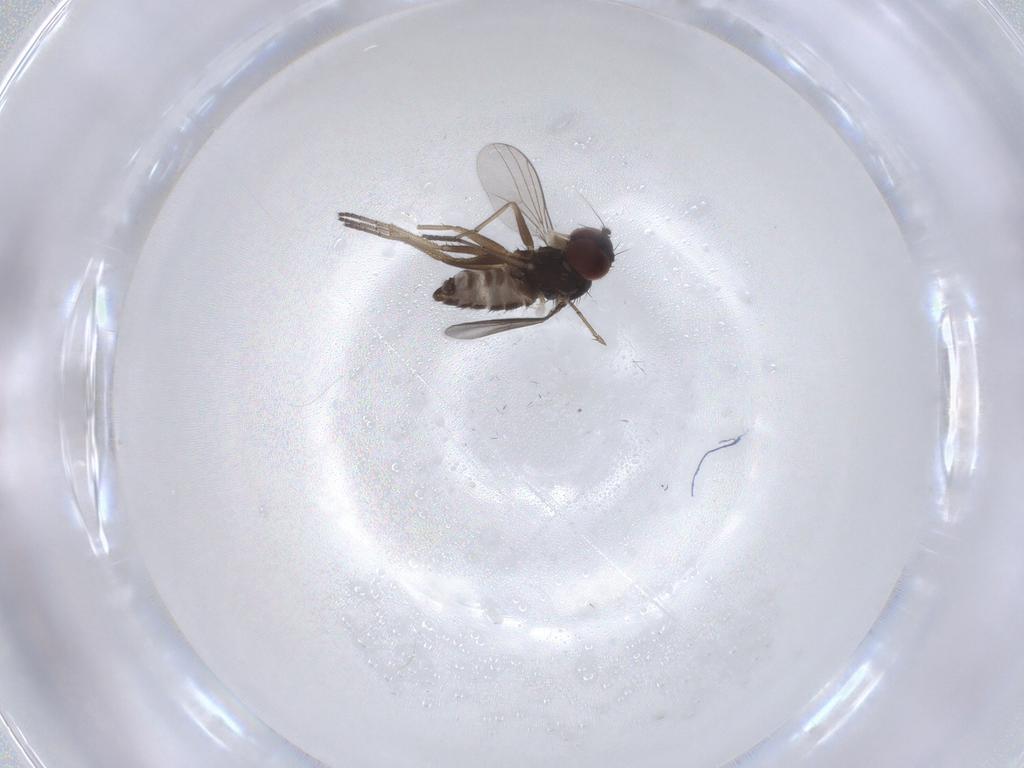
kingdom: Animalia
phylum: Arthropoda
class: Insecta
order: Diptera
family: Dolichopodidae
